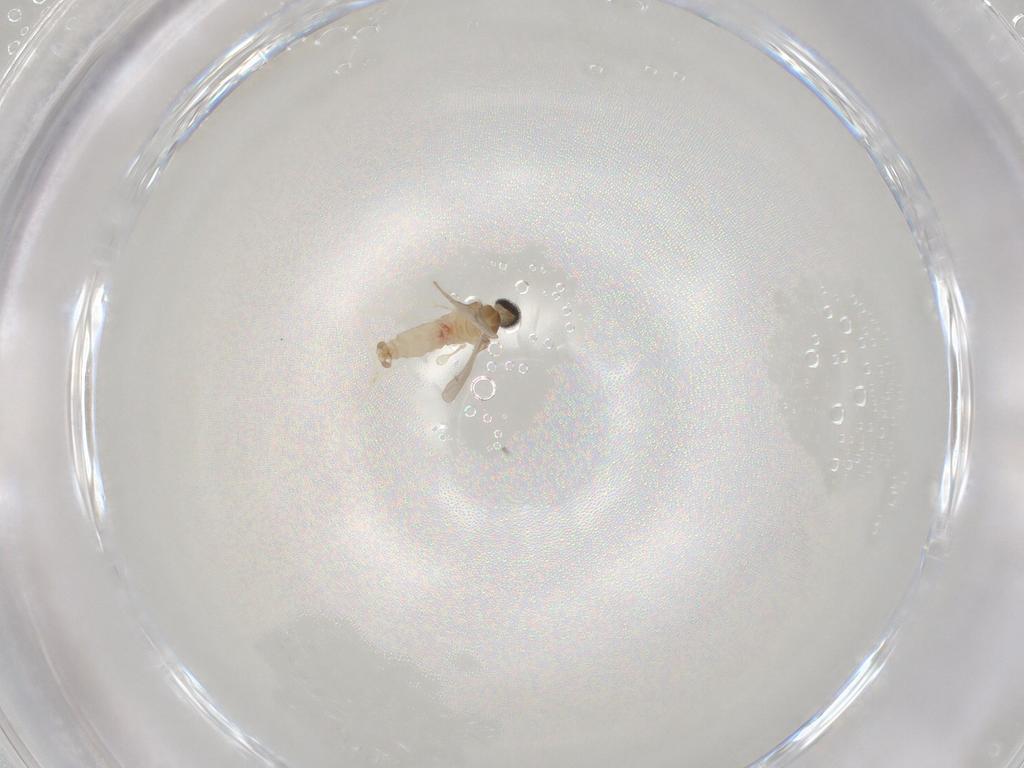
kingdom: Animalia
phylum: Arthropoda
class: Insecta
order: Diptera
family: Cecidomyiidae
